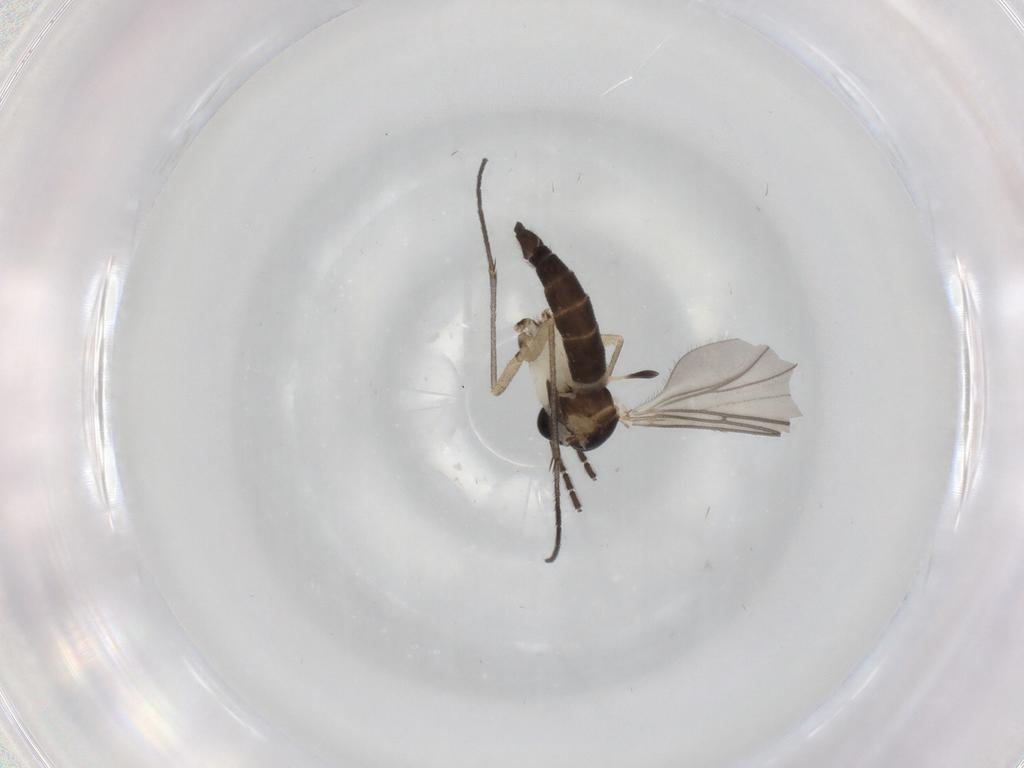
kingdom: Animalia
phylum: Arthropoda
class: Insecta
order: Diptera
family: Sciaridae
